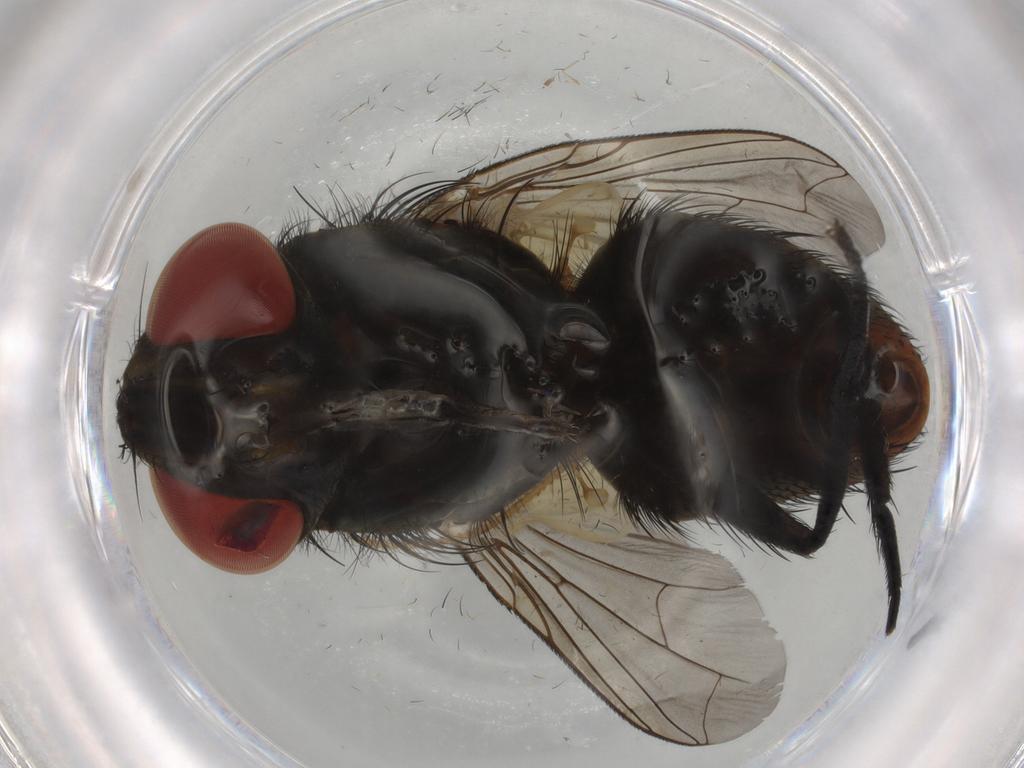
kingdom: Animalia
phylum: Arthropoda
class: Insecta
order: Diptera
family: Sarcophagidae
